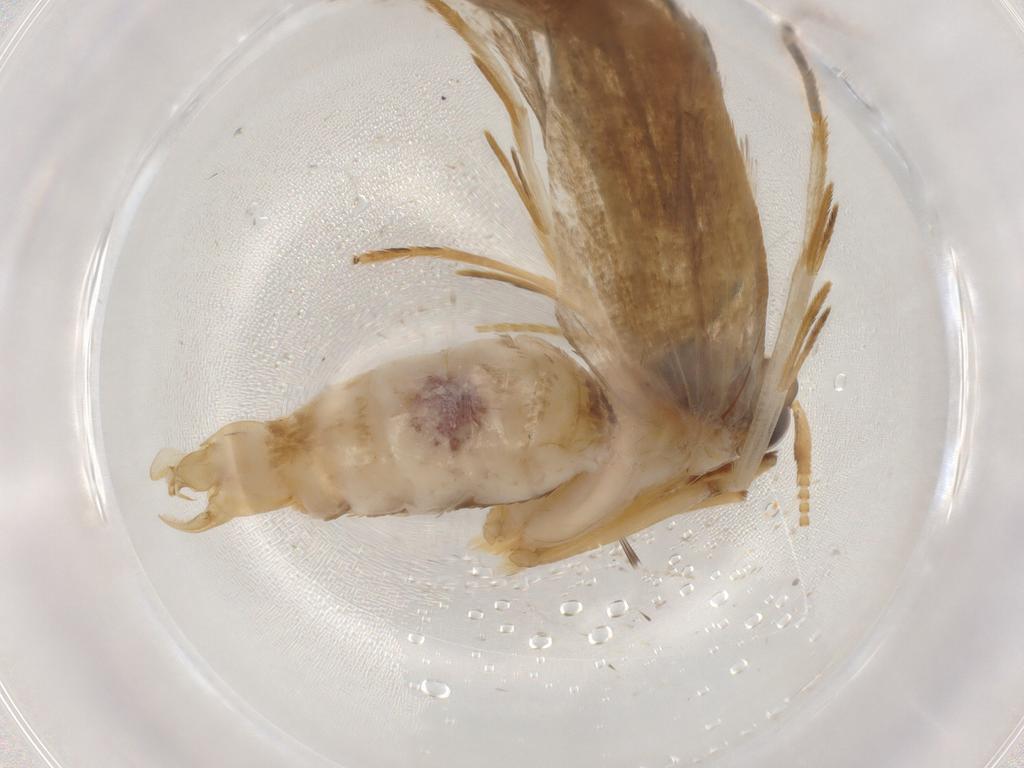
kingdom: Animalia
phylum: Arthropoda
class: Insecta
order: Lepidoptera
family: Lecithoceridae
